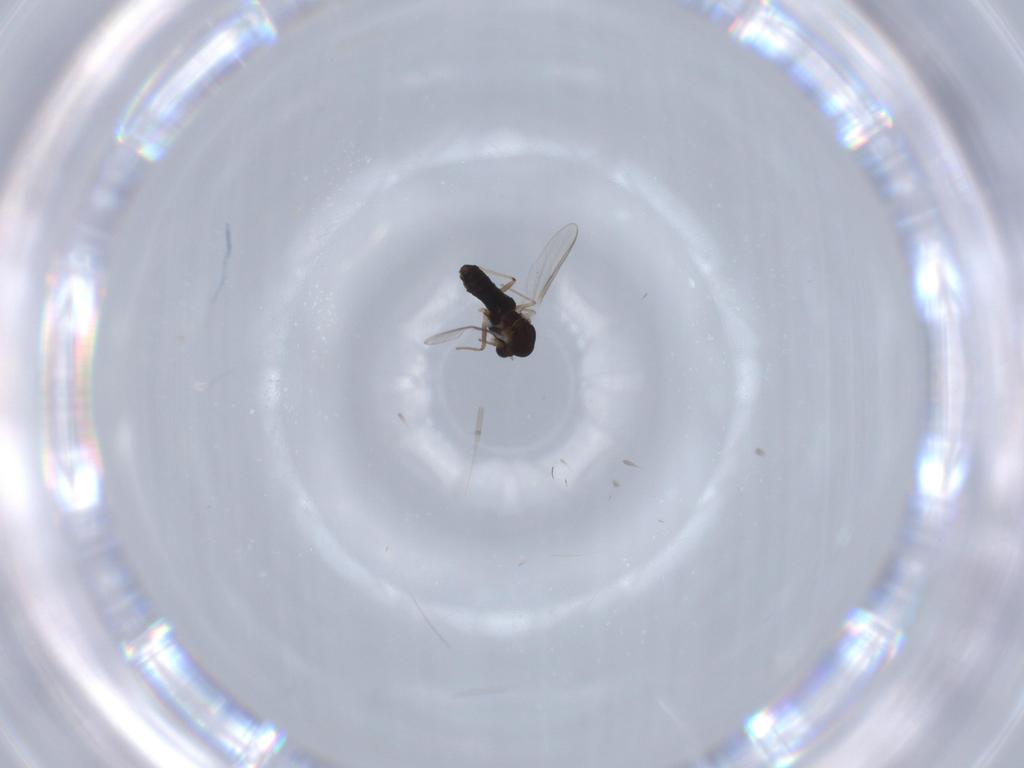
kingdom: Animalia
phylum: Arthropoda
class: Insecta
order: Diptera
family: Chironomidae
